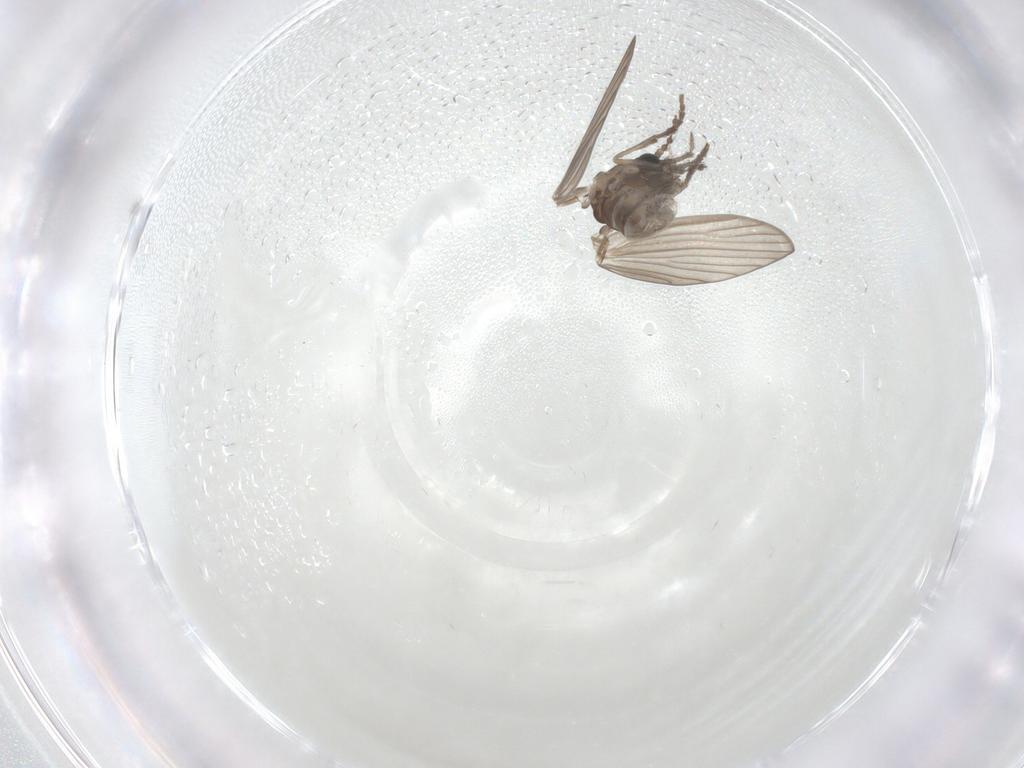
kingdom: Animalia
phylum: Arthropoda
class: Insecta
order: Diptera
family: Psychodidae
